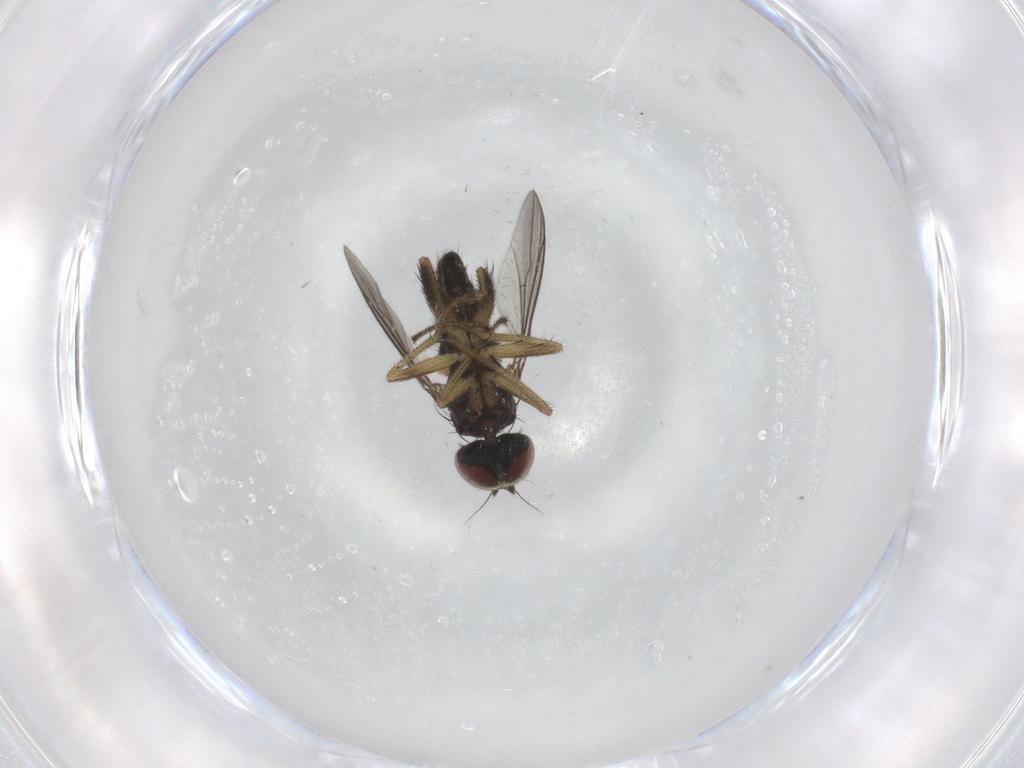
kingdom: Animalia
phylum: Arthropoda
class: Insecta
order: Diptera
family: Dolichopodidae
